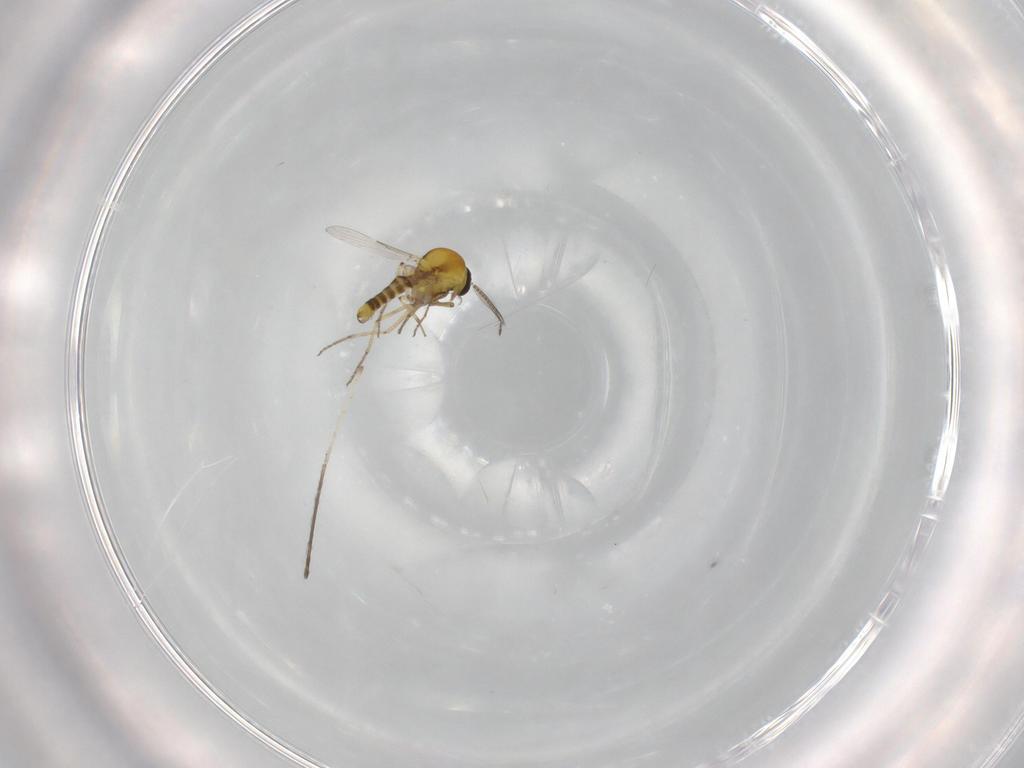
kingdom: Animalia
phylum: Arthropoda
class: Insecta
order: Diptera
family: Ceratopogonidae
